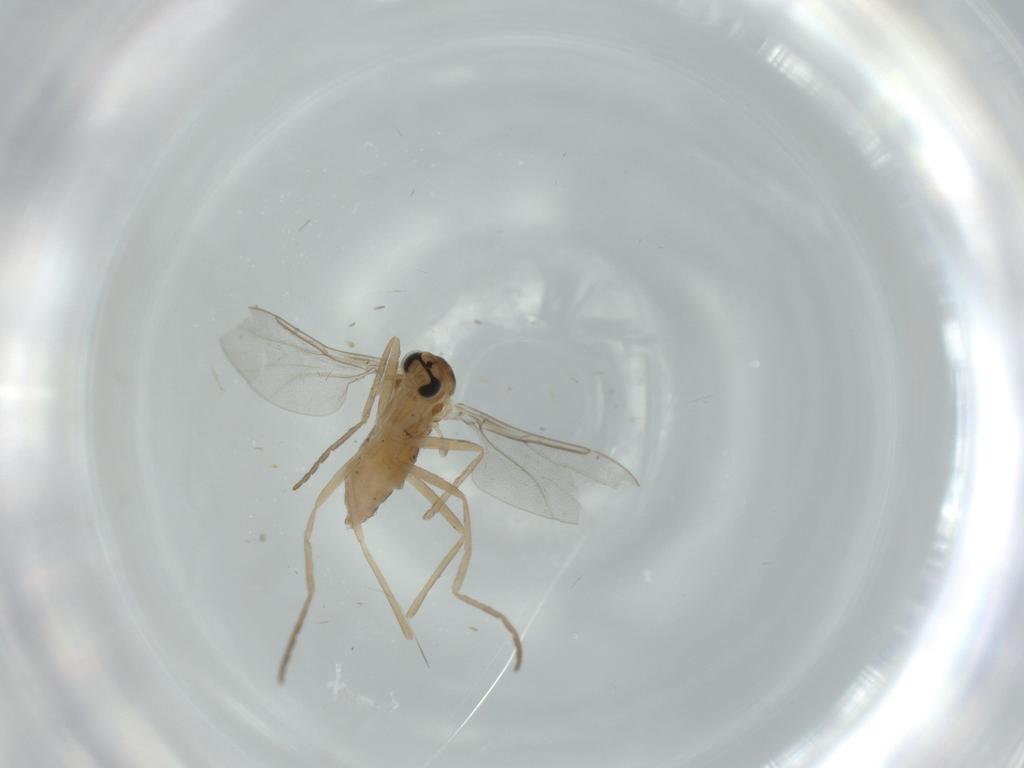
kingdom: Animalia
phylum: Arthropoda
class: Insecta
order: Diptera
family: Cecidomyiidae
